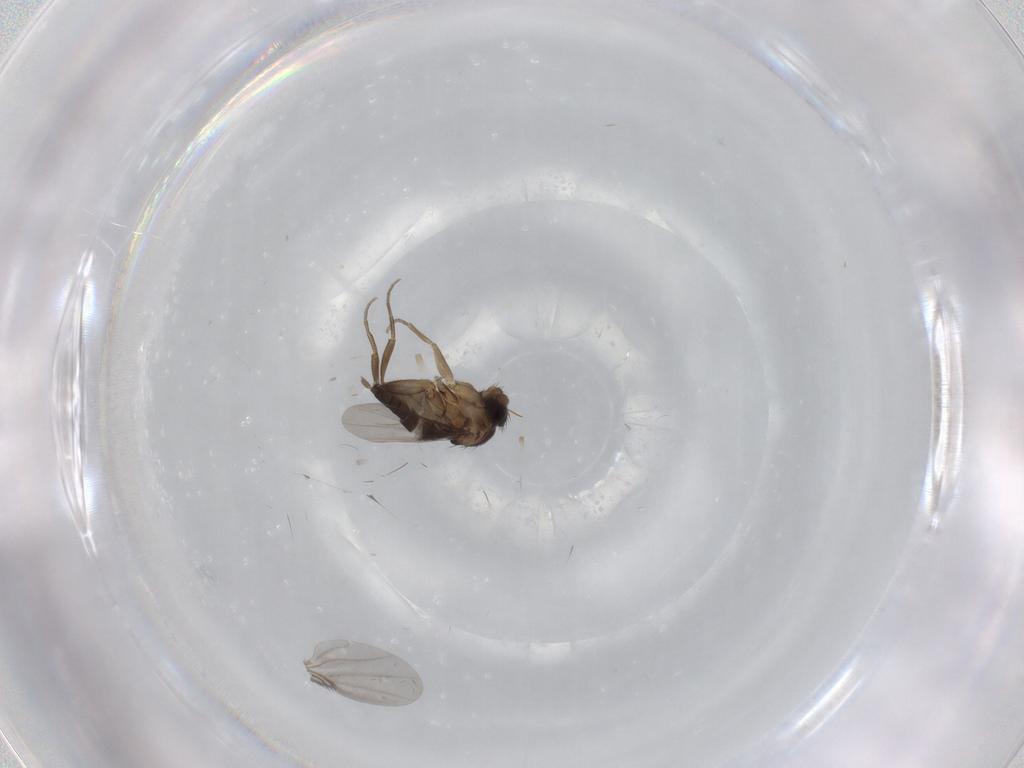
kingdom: Animalia
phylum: Arthropoda
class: Insecta
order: Diptera
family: Phoridae
